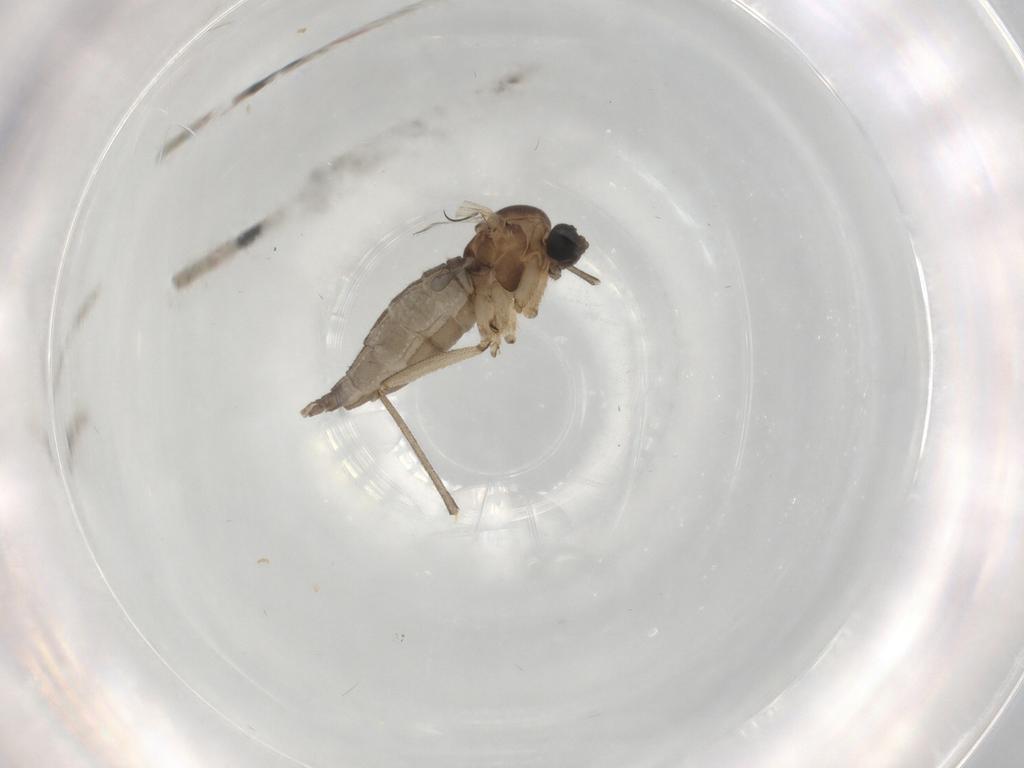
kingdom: Animalia
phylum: Arthropoda
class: Insecta
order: Diptera
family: Sciaridae
